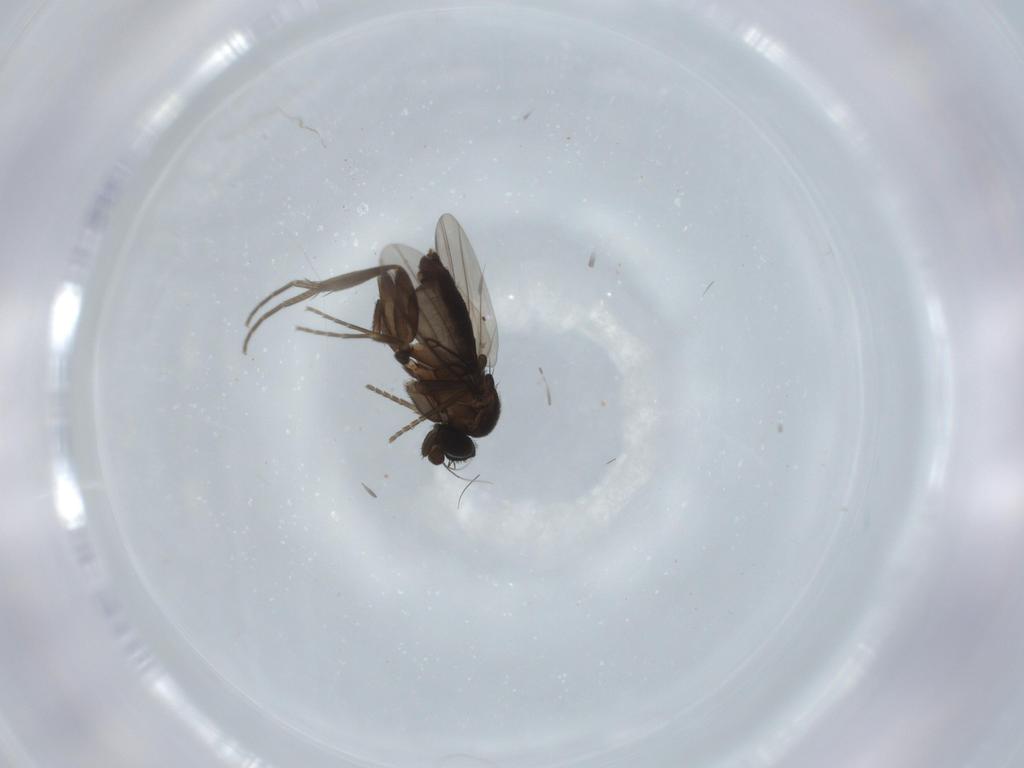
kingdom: Animalia
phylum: Arthropoda
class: Insecta
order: Diptera
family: Phoridae
